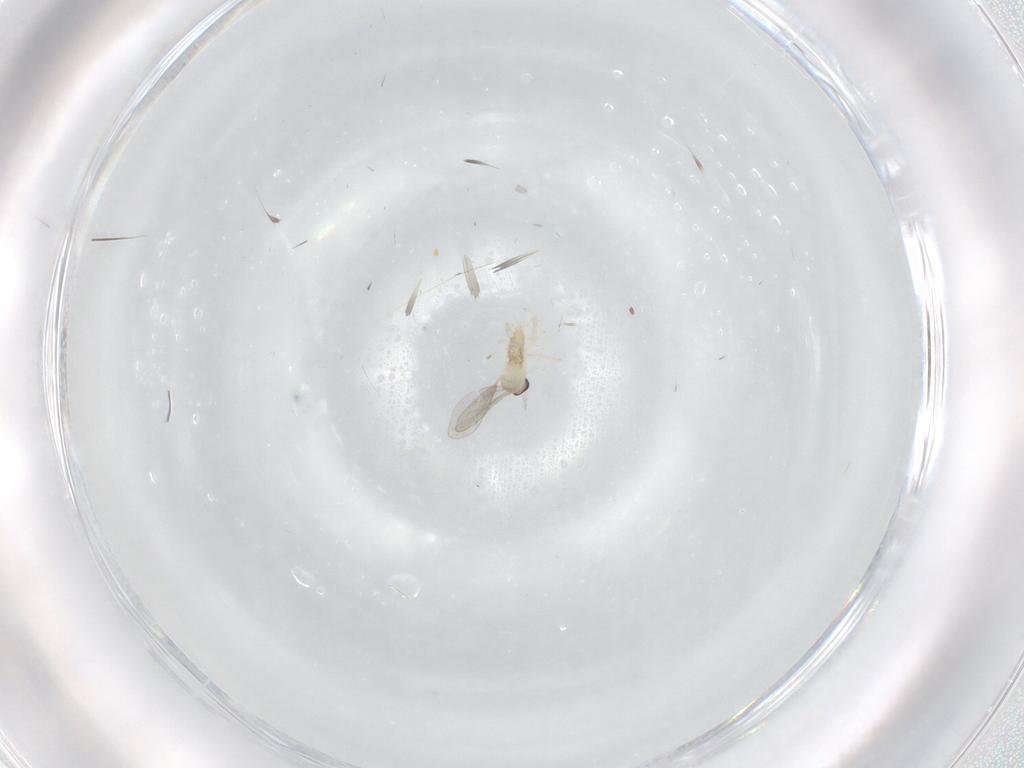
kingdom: Animalia
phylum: Arthropoda
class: Insecta
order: Diptera
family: Cecidomyiidae
